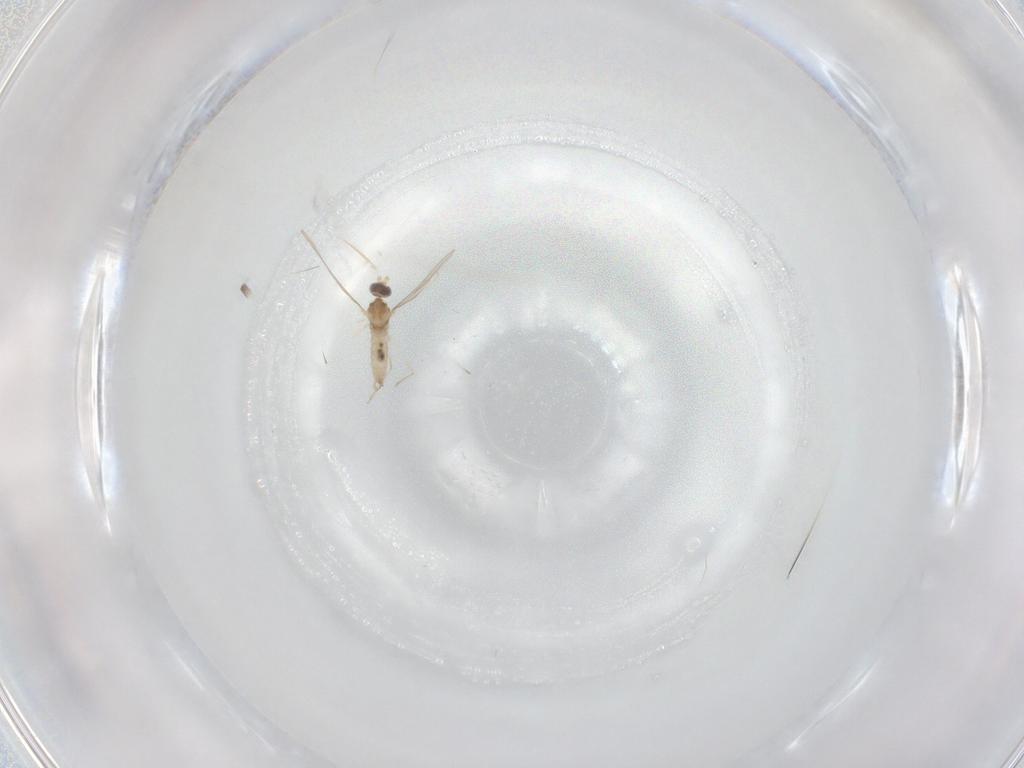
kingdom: Animalia
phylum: Arthropoda
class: Insecta
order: Diptera
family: Cecidomyiidae
